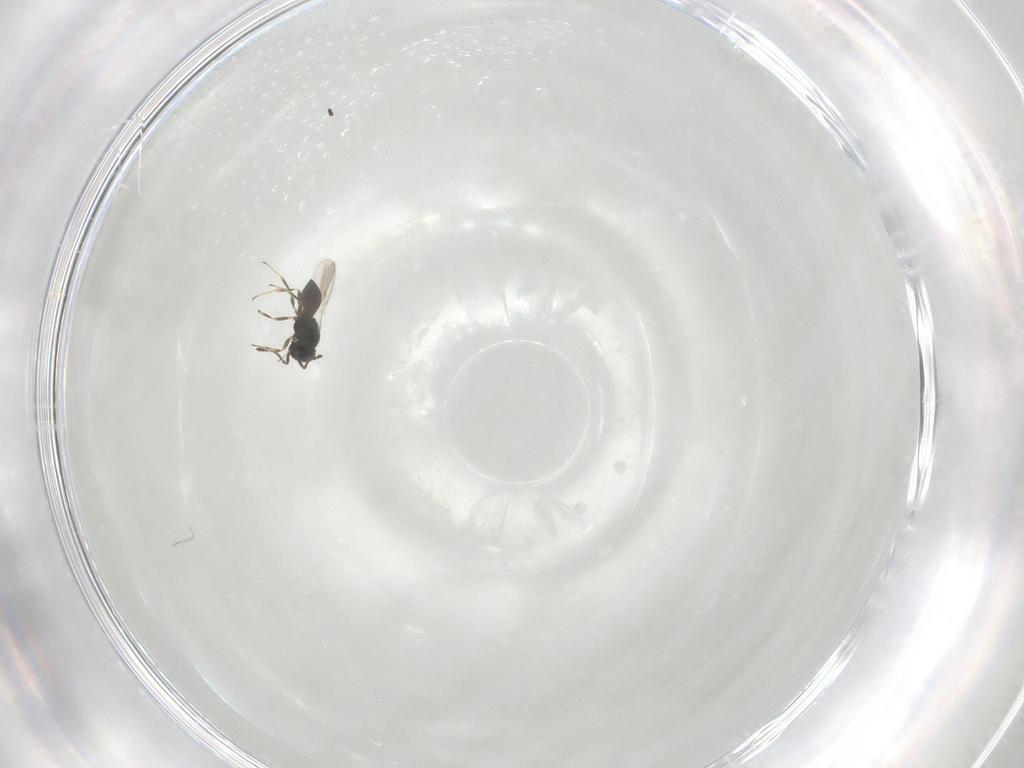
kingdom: Animalia
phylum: Arthropoda
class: Insecta
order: Hymenoptera
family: Scelionidae
